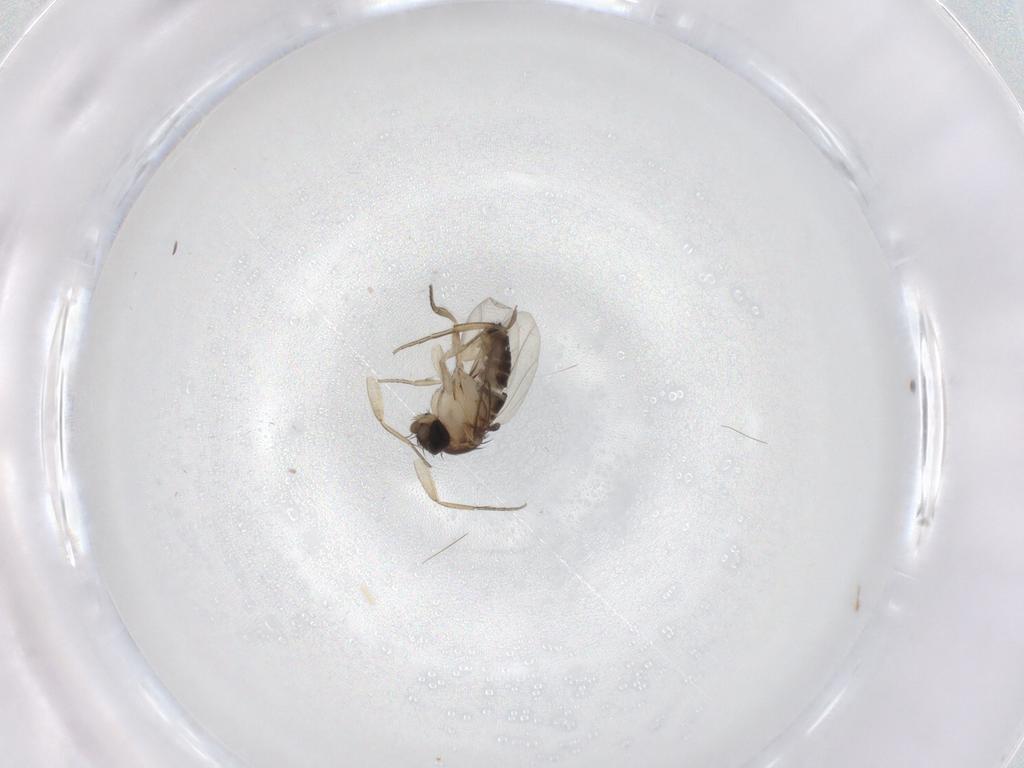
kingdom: Animalia
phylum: Arthropoda
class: Insecta
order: Diptera
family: Phoridae
